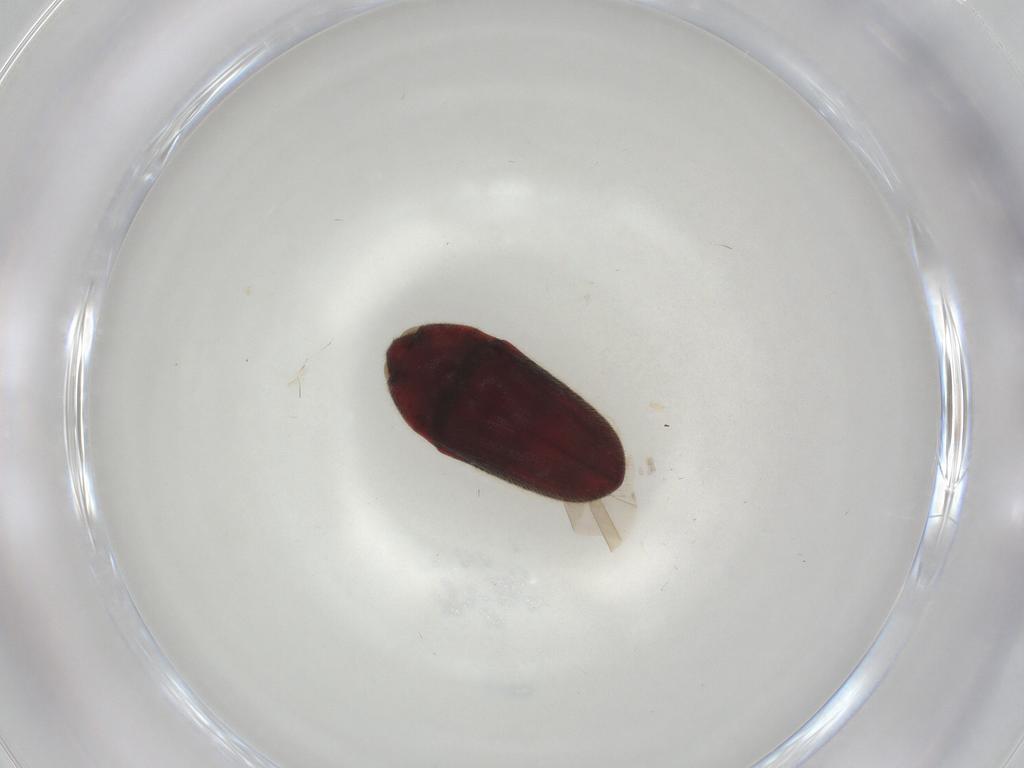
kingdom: Animalia
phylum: Arthropoda
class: Insecta
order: Coleoptera
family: Throscidae
